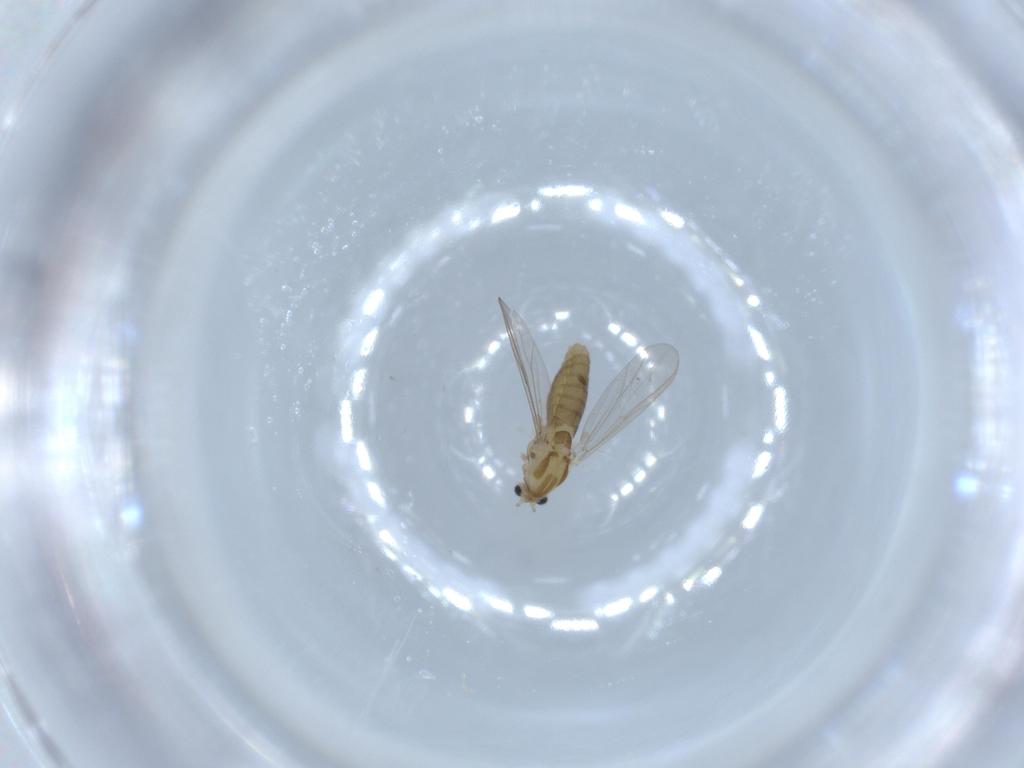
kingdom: Animalia
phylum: Arthropoda
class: Insecta
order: Diptera
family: Chironomidae
